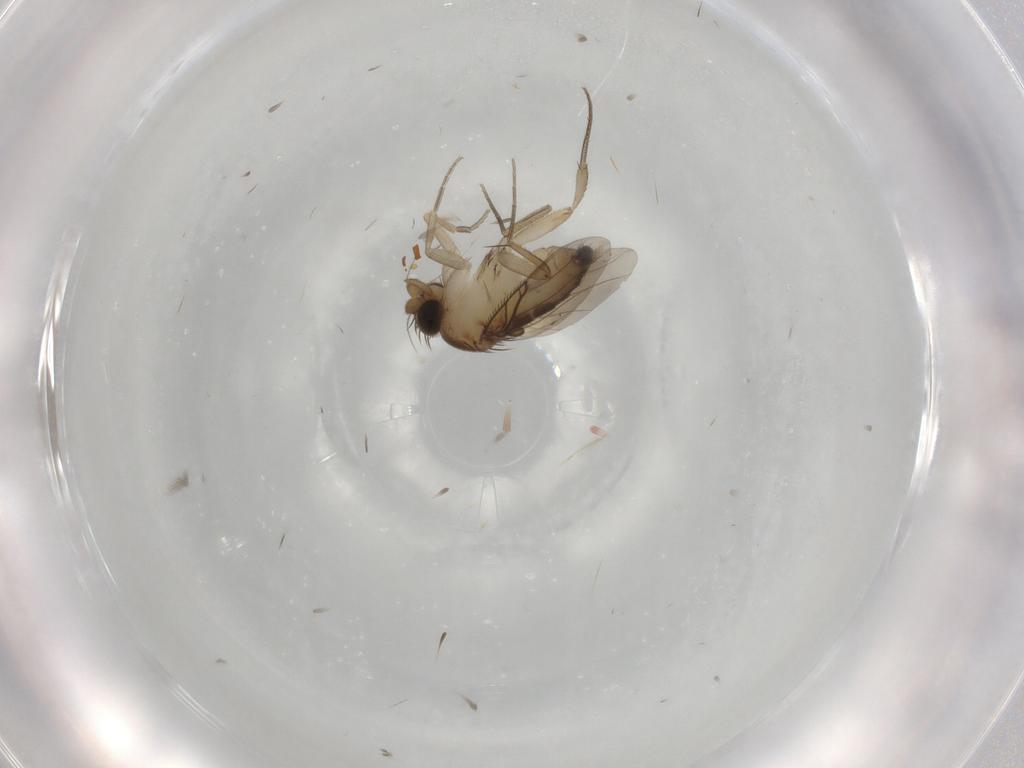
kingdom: Animalia
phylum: Arthropoda
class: Insecta
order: Diptera
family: Phoridae
